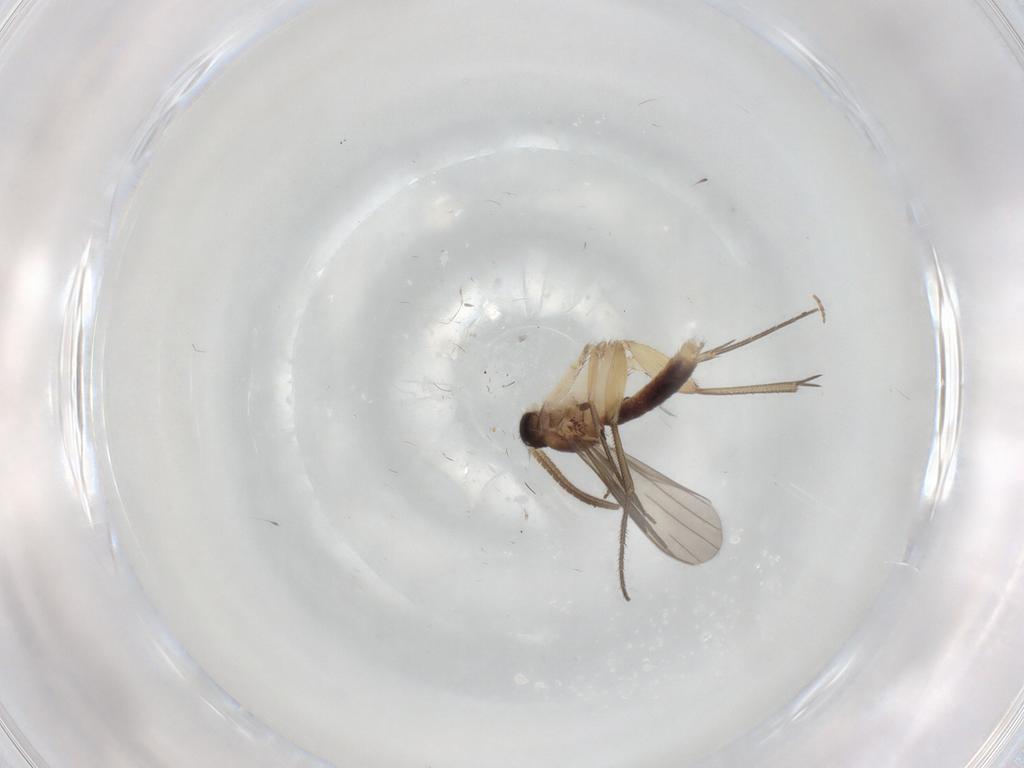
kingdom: Animalia
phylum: Arthropoda
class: Insecta
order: Diptera
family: Mycetophilidae
